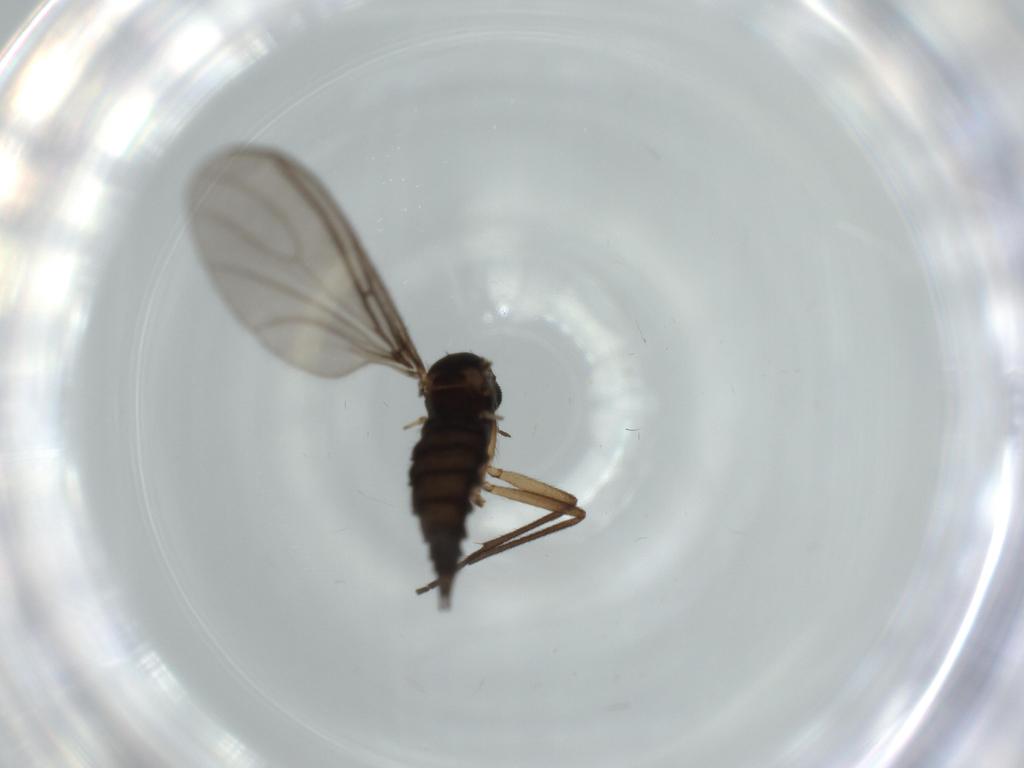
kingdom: Animalia
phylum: Arthropoda
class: Insecta
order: Diptera
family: Sciaridae
